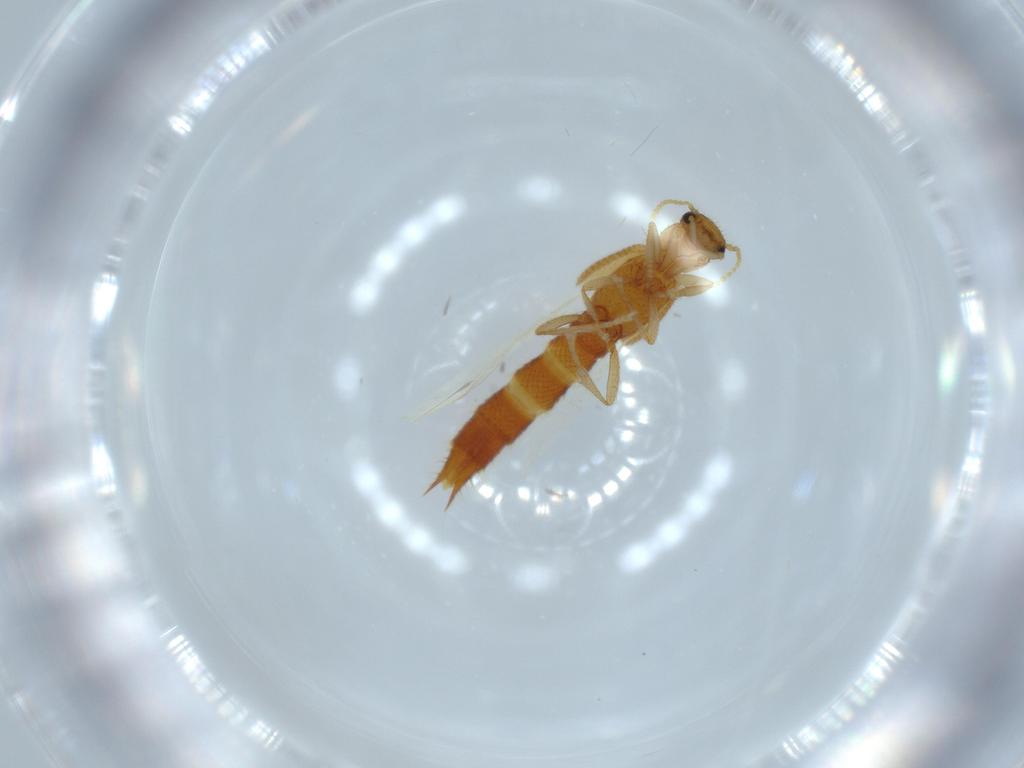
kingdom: Animalia
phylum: Arthropoda
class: Insecta
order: Coleoptera
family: Staphylinidae
